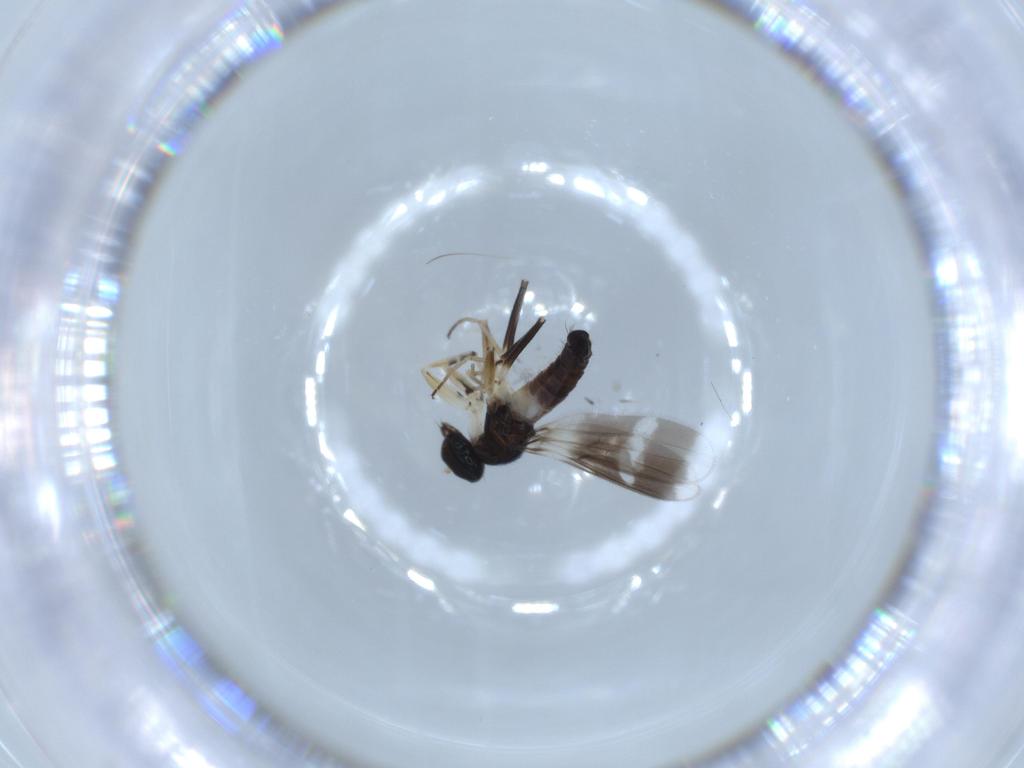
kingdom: Animalia
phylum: Arthropoda
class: Insecta
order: Diptera
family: Hybotidae
